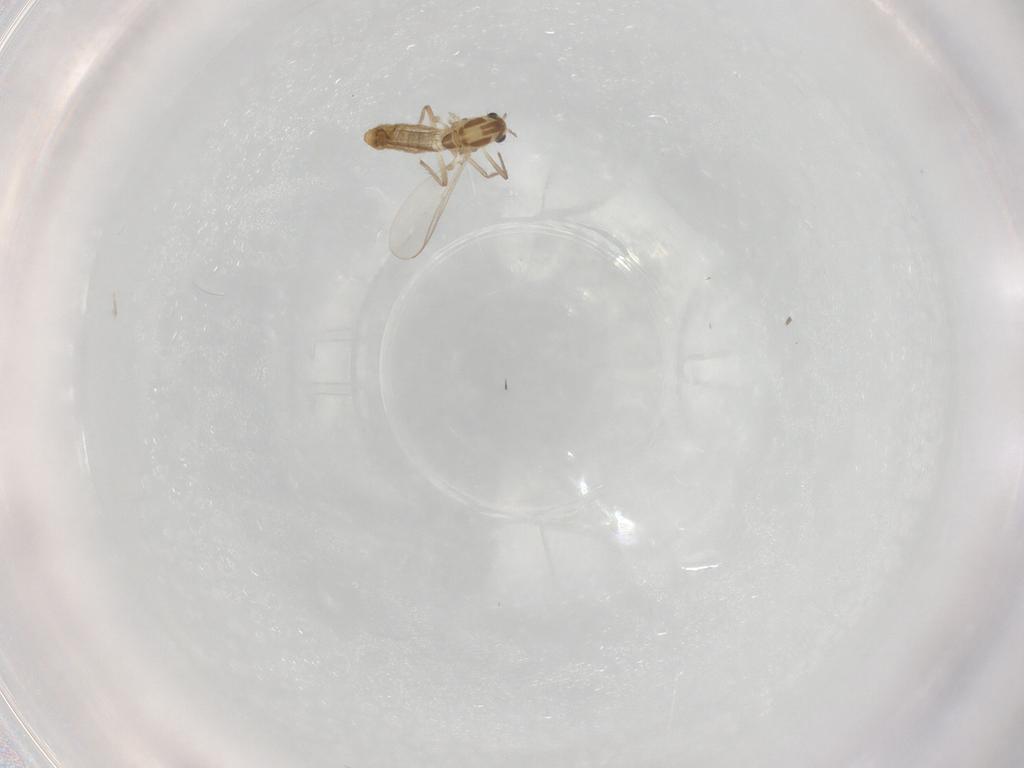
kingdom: Animalia
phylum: Arthropoda
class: Insecta
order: Diptera
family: Chironomidae
